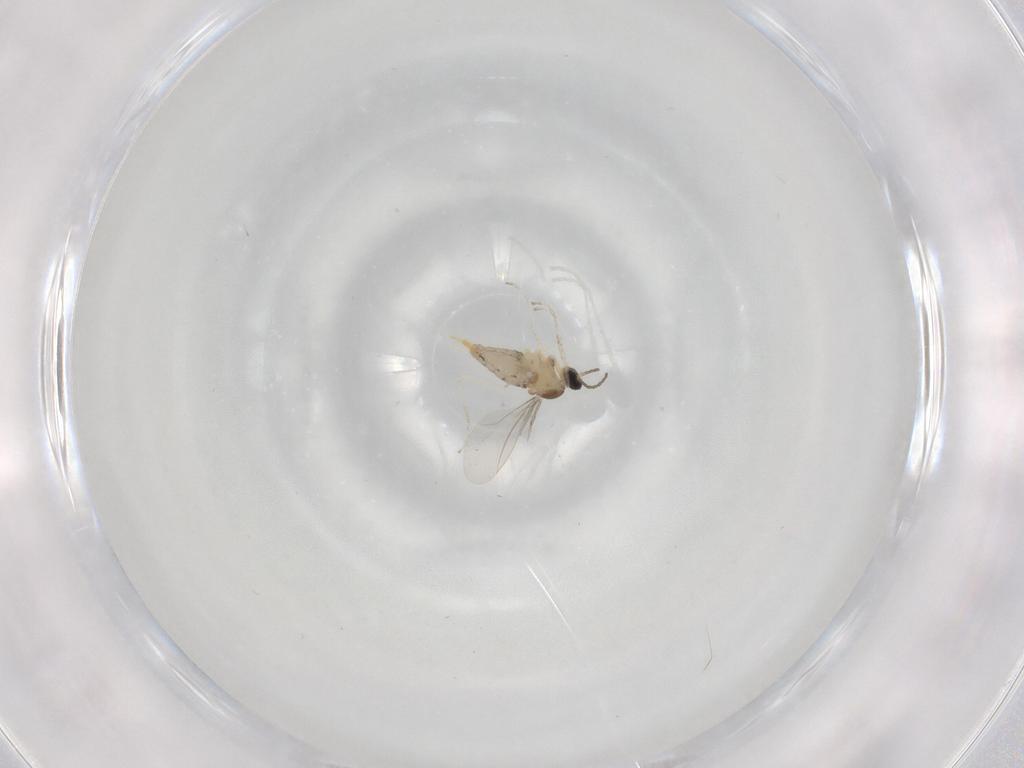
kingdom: Animalia
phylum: Arthropoda
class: Insecta
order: Diptera
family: Cecidomyiidae
